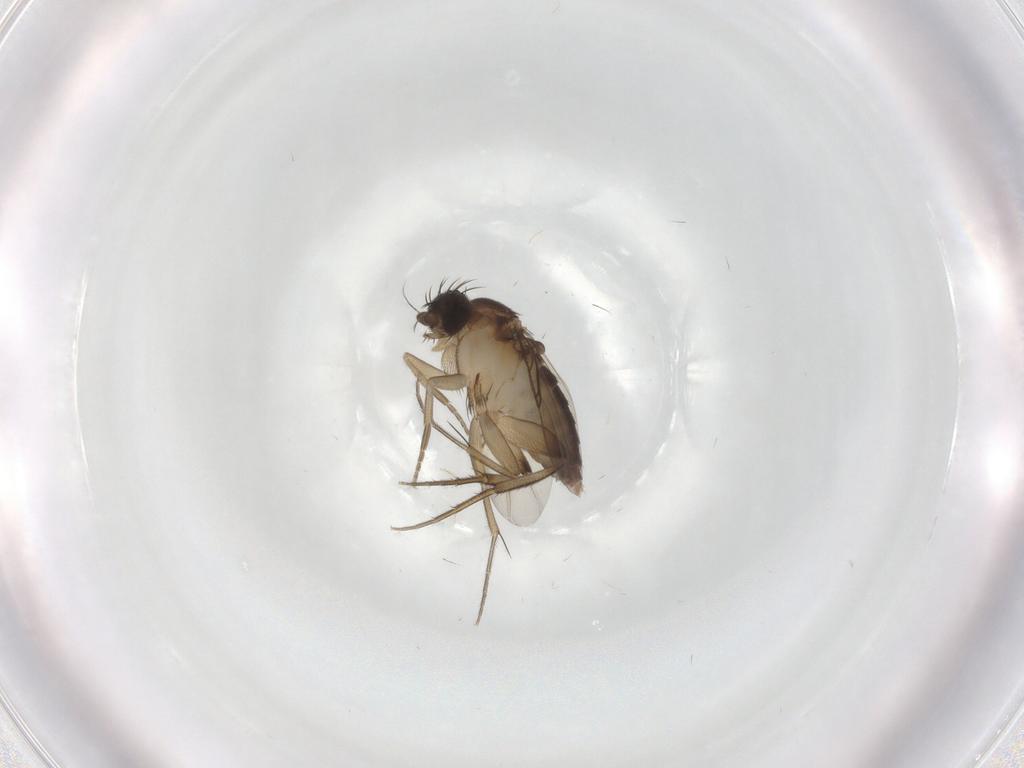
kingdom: Animalia
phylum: Arthropoda
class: Insecta
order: Diptera
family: Phoridae
